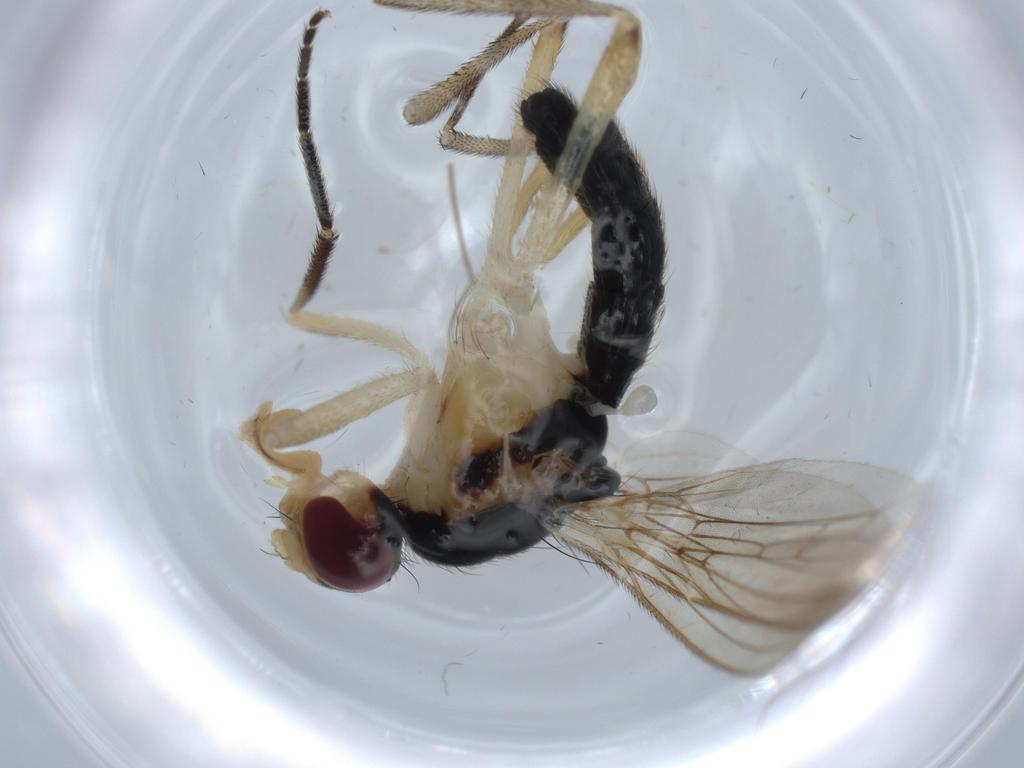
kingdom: Animalia
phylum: Arthropoda
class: Insecta
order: Diptera
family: Scathophagidae
